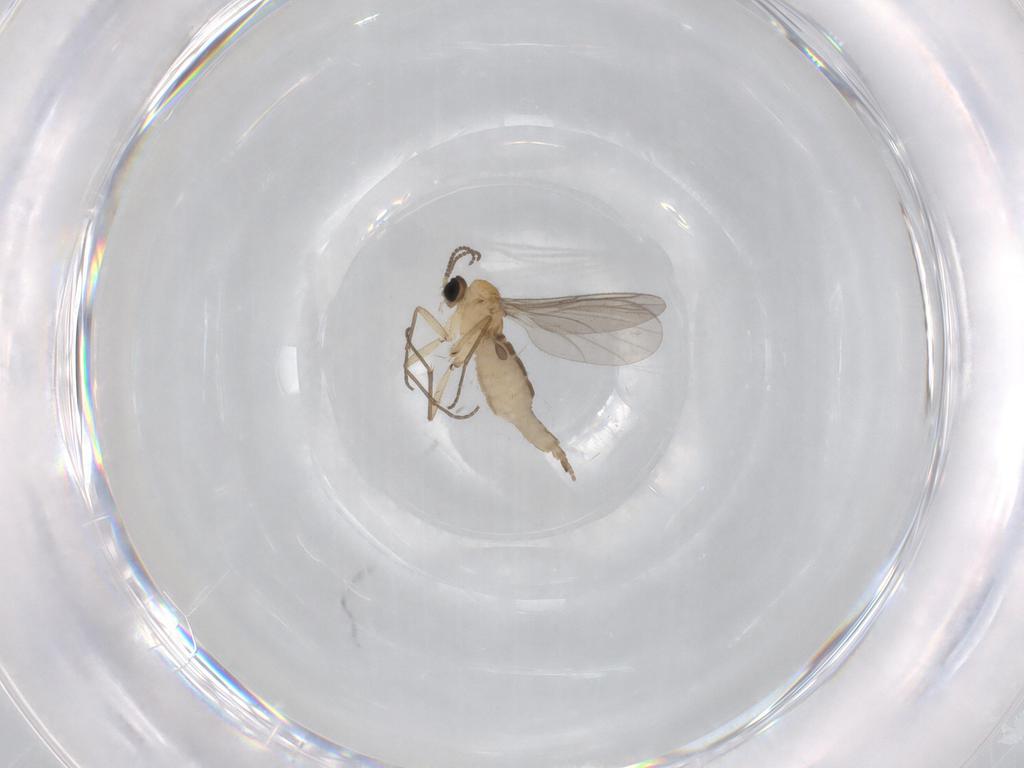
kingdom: Animalia
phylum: Arthropoda
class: Insecta
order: Diptera
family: Sciaridae
